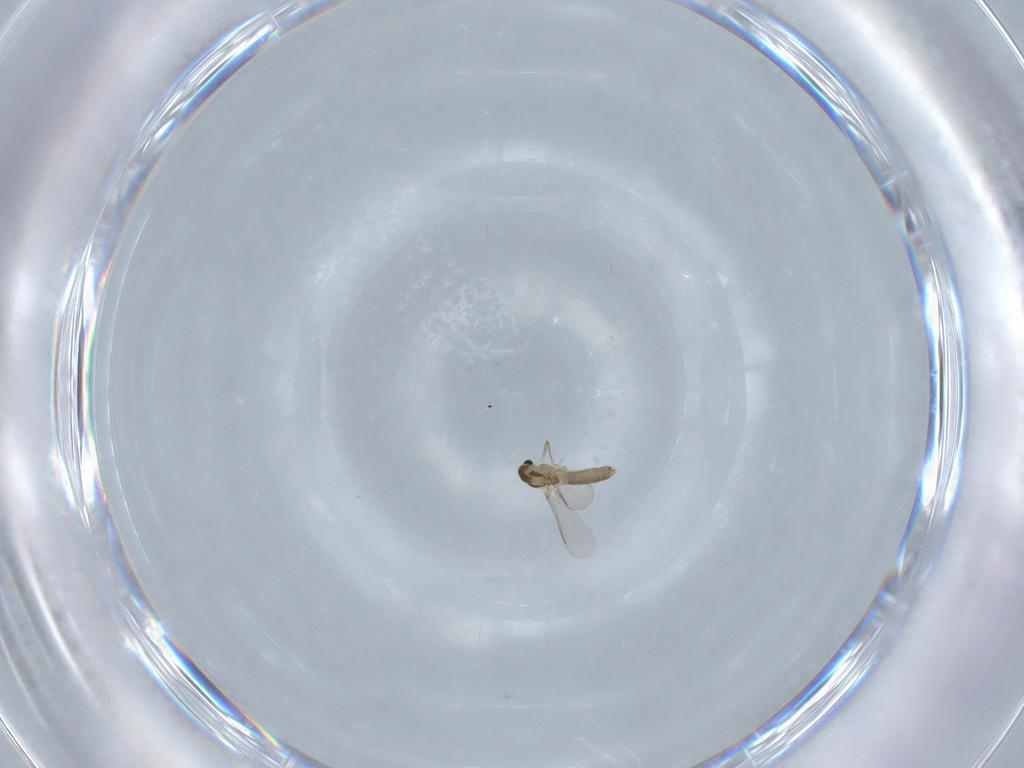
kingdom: Animalia
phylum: Arthropoda
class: Insecta
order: Diptera
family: Chironomidae
